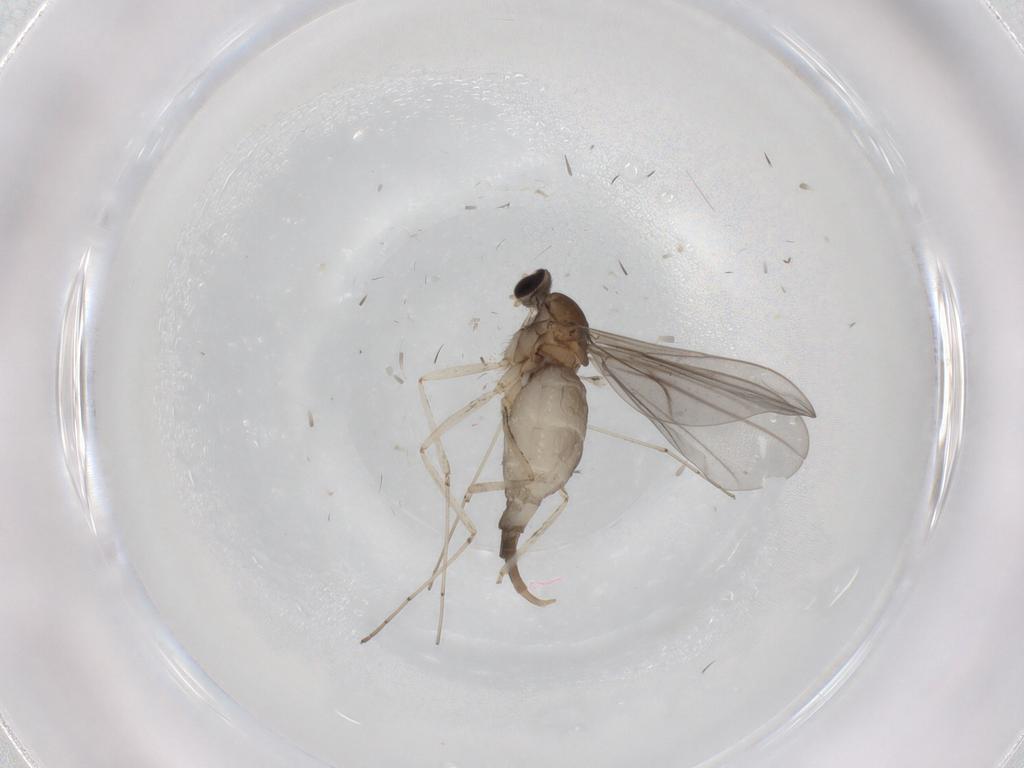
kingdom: Animalia
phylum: Arthropoda
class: Insecta
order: Diptera
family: Cecidomyiidae
